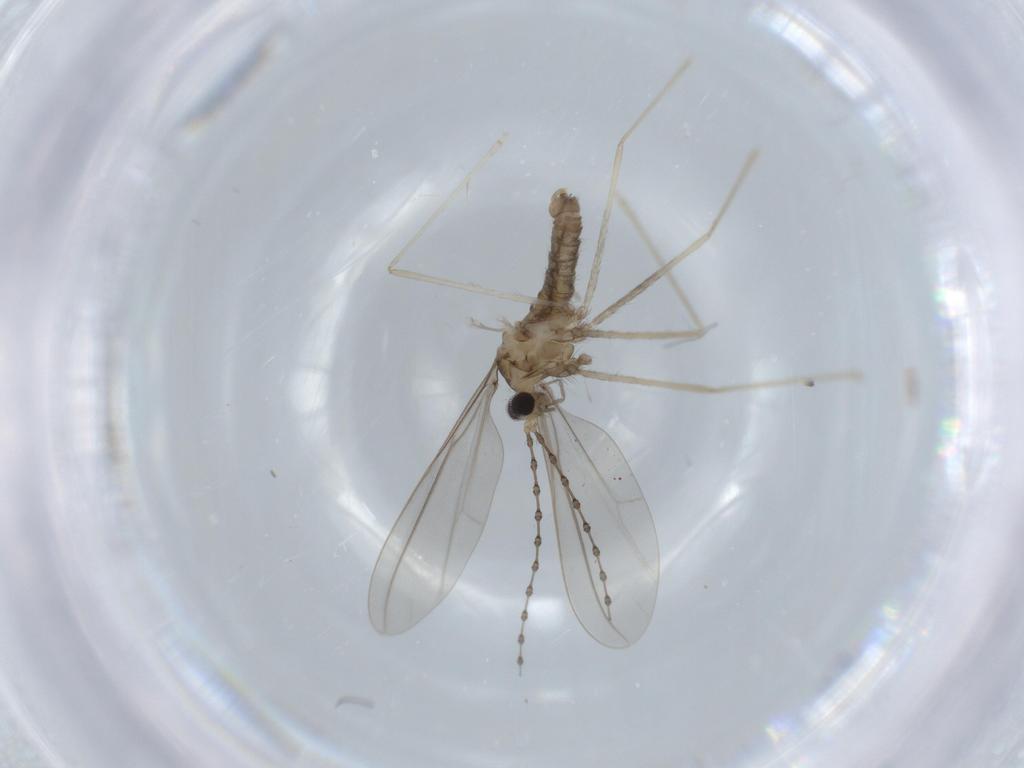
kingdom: Animalia
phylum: Arthropoda
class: Insecta
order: Diptera
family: Cecidomyiidae
